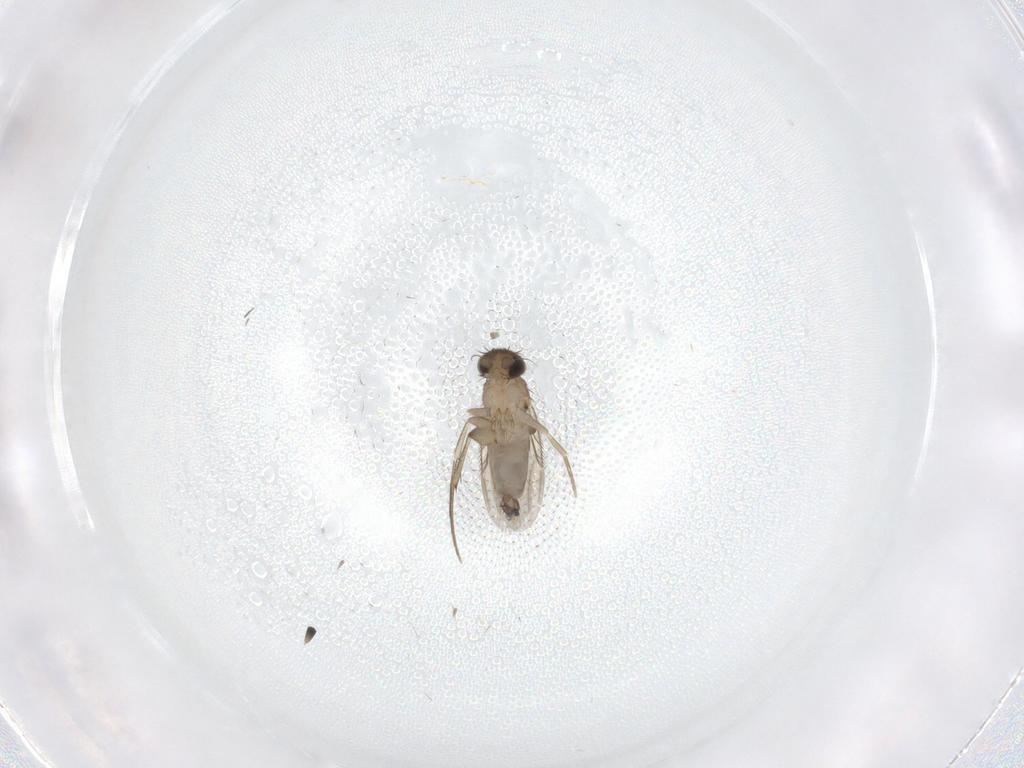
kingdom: Animalia
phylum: Arthropoda
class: Insecta
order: Diptera
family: Phoridae
